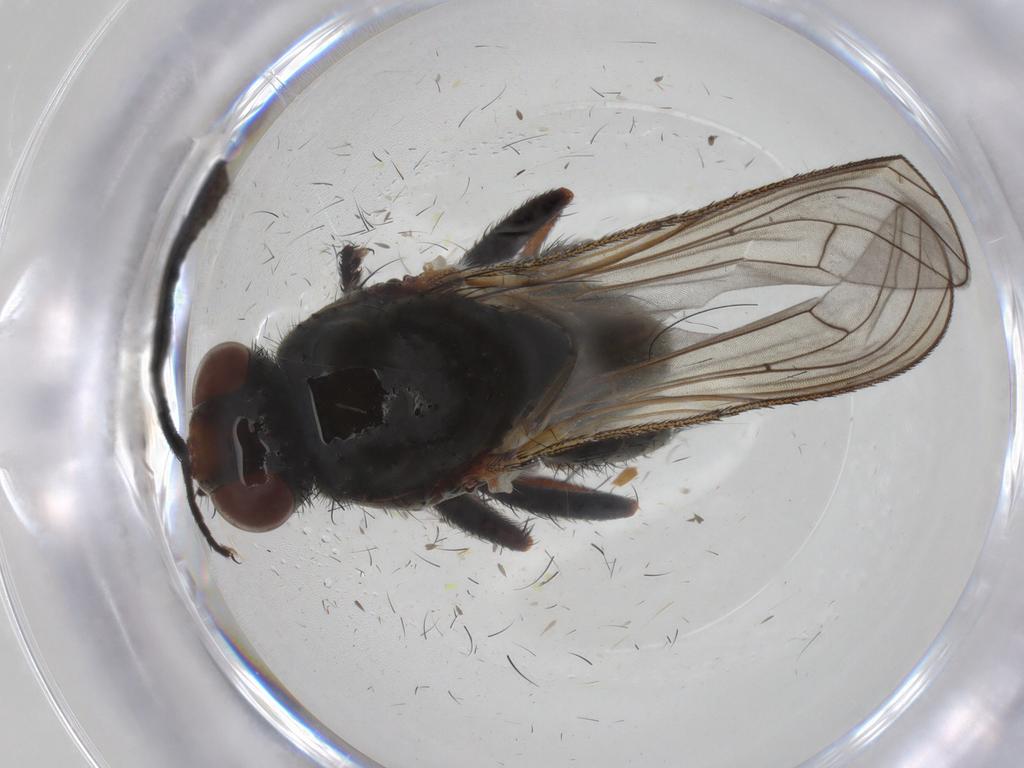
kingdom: Animalia
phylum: Arthropoda
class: Insecta
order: Diptera
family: Anthomyiidae
